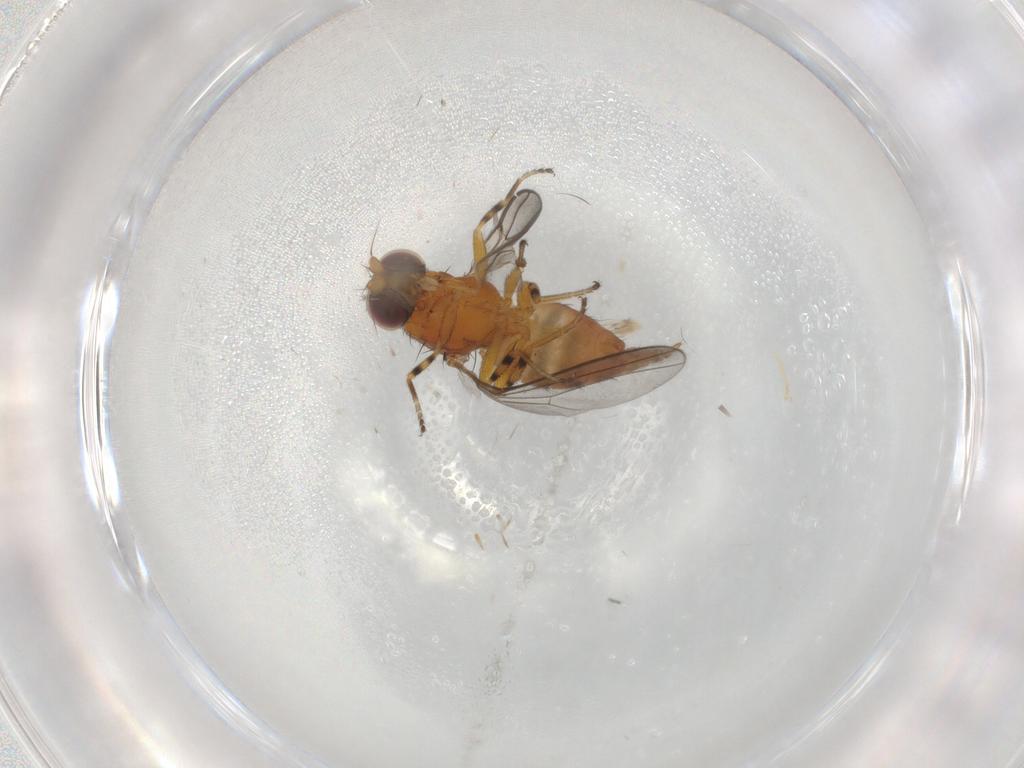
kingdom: Animalia
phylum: Arthropoda
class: Insecta
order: Diptera
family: Chloropidae
